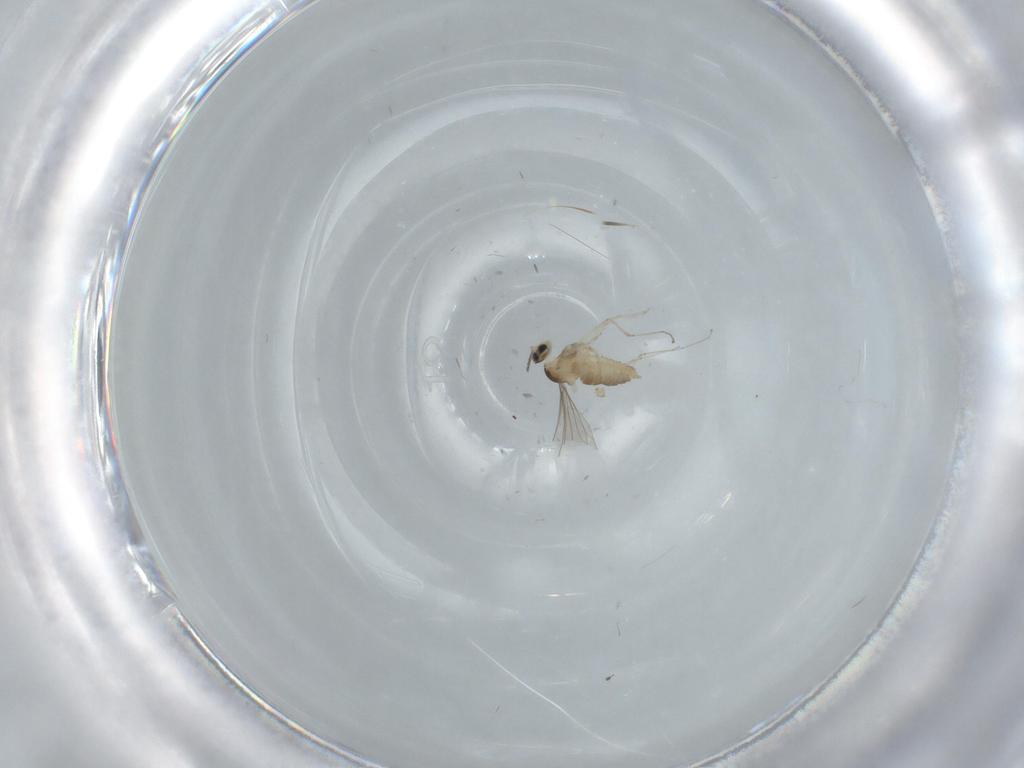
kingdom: Animalia
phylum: Arthropoda
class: Insecta
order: Diptera
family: Cecidomyiidae
